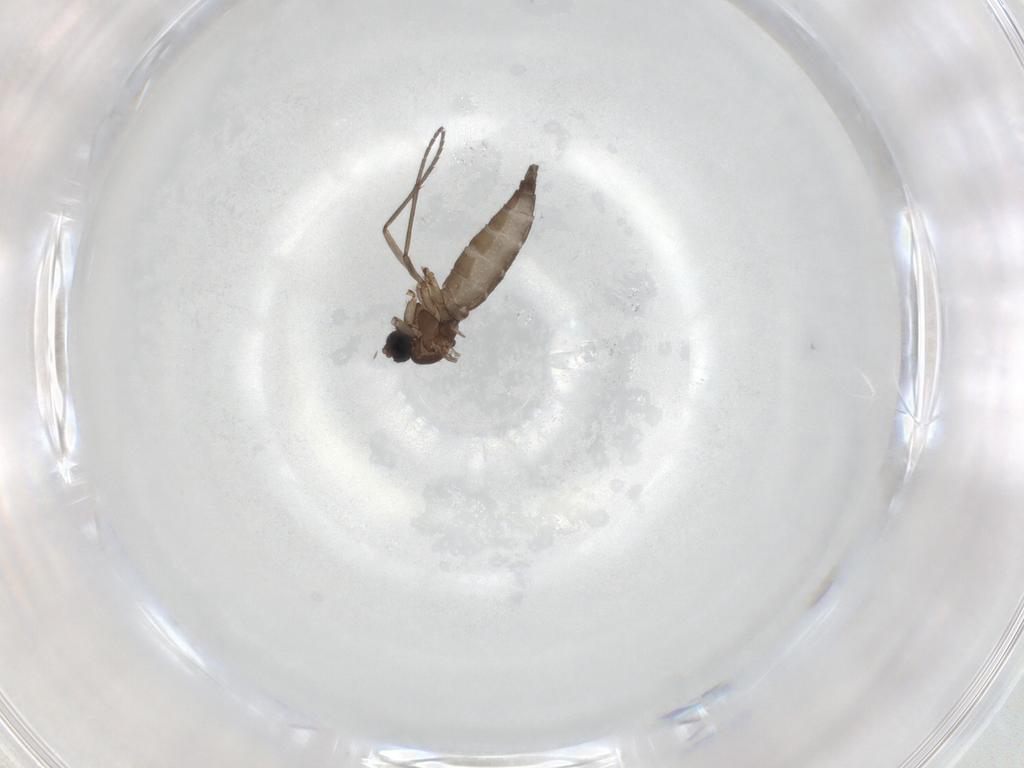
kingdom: Animalia
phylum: Arthropoda
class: Insecta
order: Diptera
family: Sciaridae
